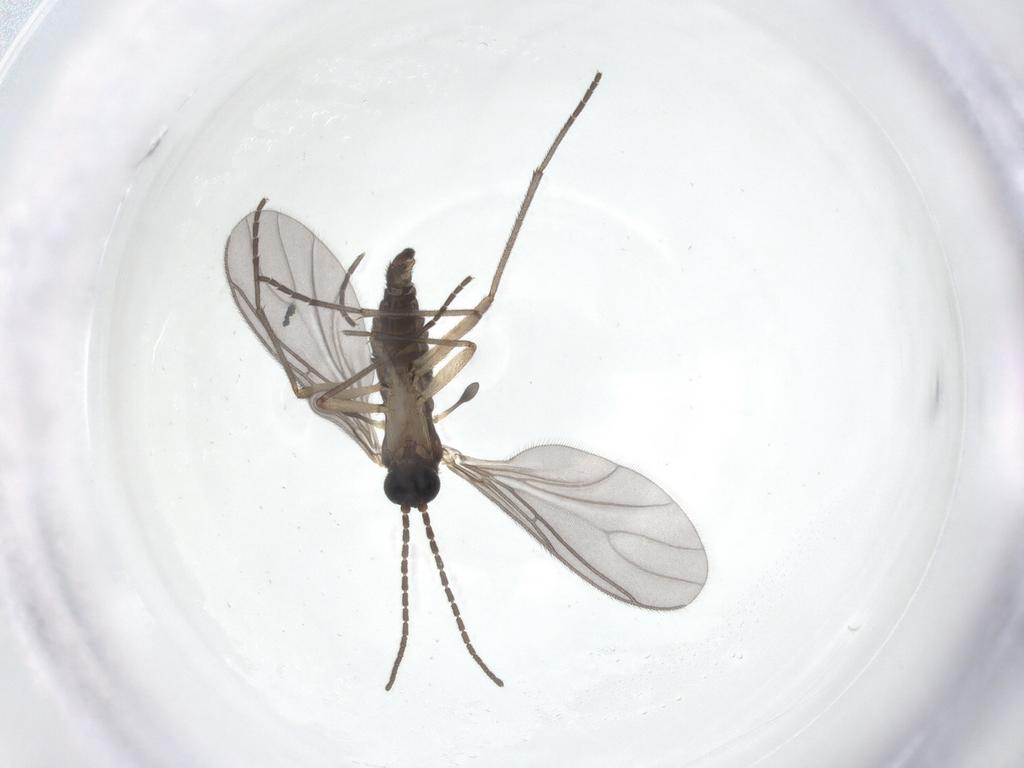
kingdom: Animalia
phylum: Arthropoda
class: Insecta
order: Diptera
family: Sciaridae
